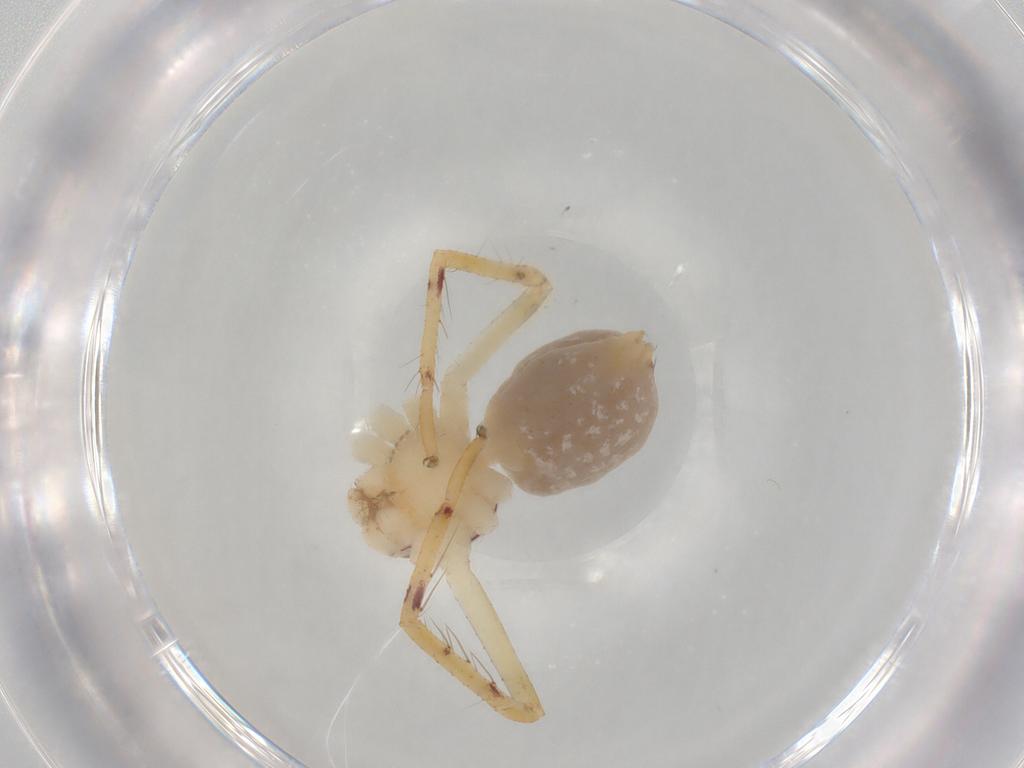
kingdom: Animalia
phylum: Arthropoda
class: Arachnida
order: Araneae
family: Sparassidae
